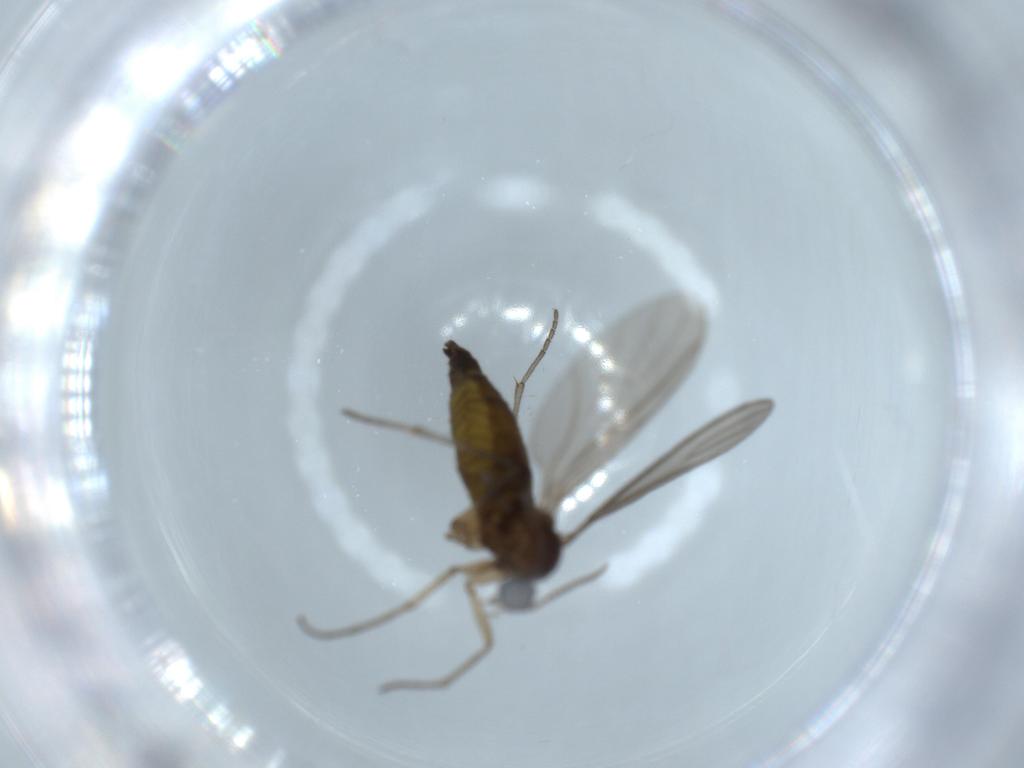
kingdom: Animalia
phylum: Arthropoda
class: Insecta
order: Diptera
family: Sciaridae
